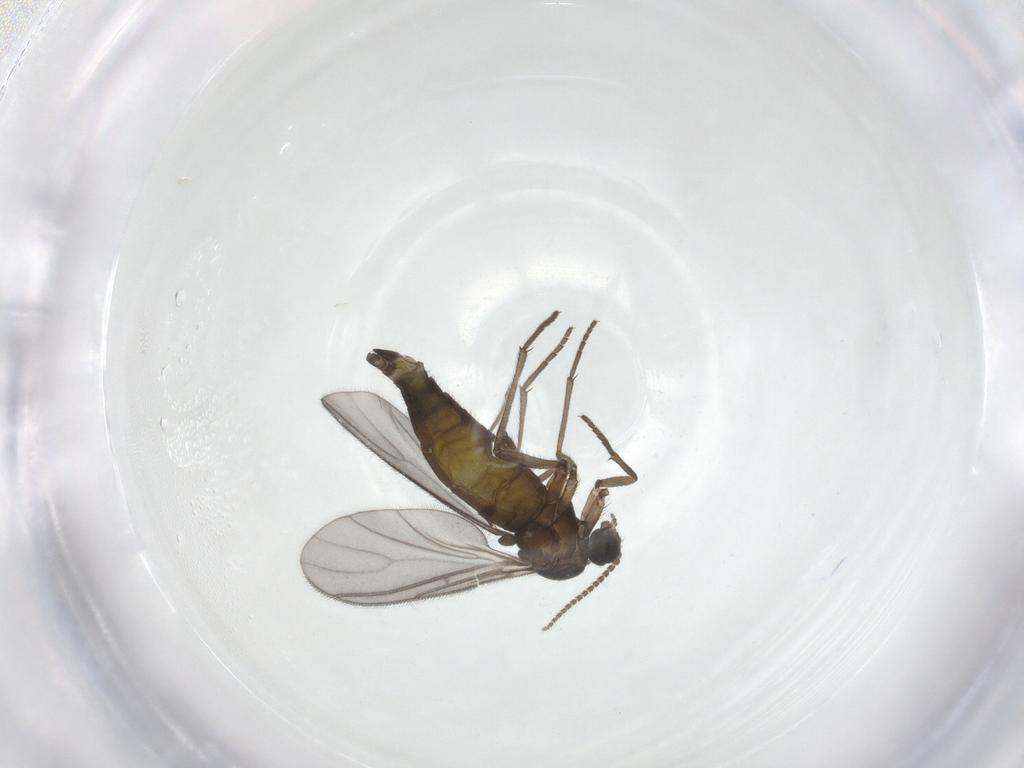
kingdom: Animalia
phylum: Arthropoda
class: Insecta
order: Diptera
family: Sciaridae
